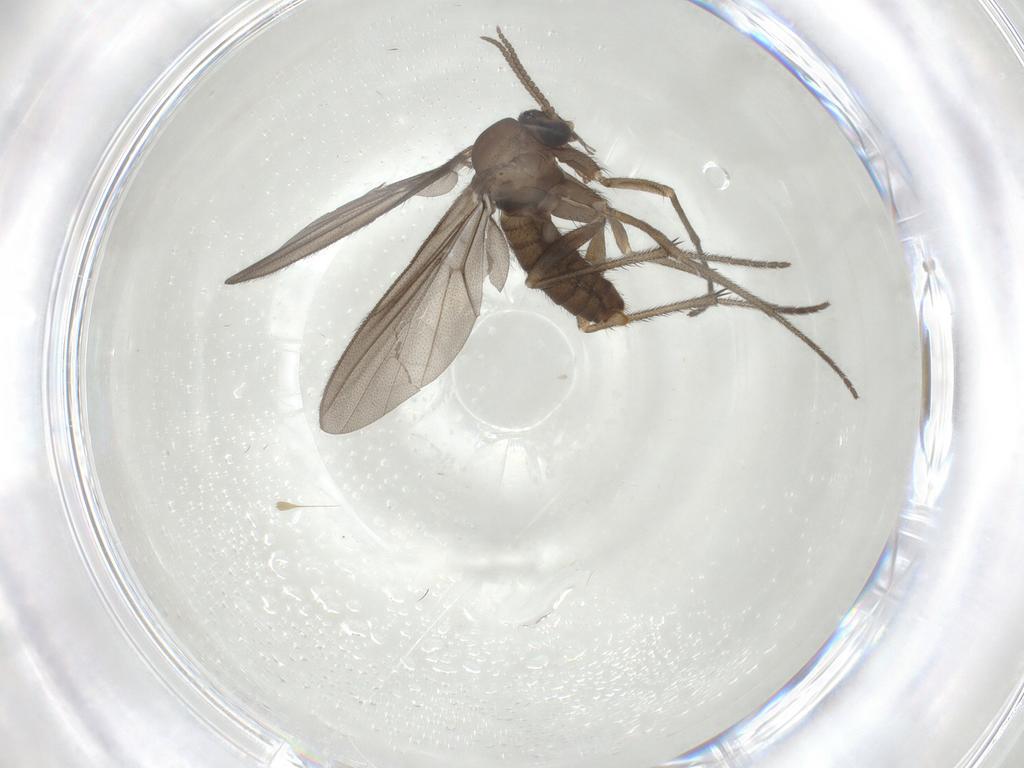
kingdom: Animalia
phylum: Arthropoda
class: Insecta
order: Diptera
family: Diadocidiidae
